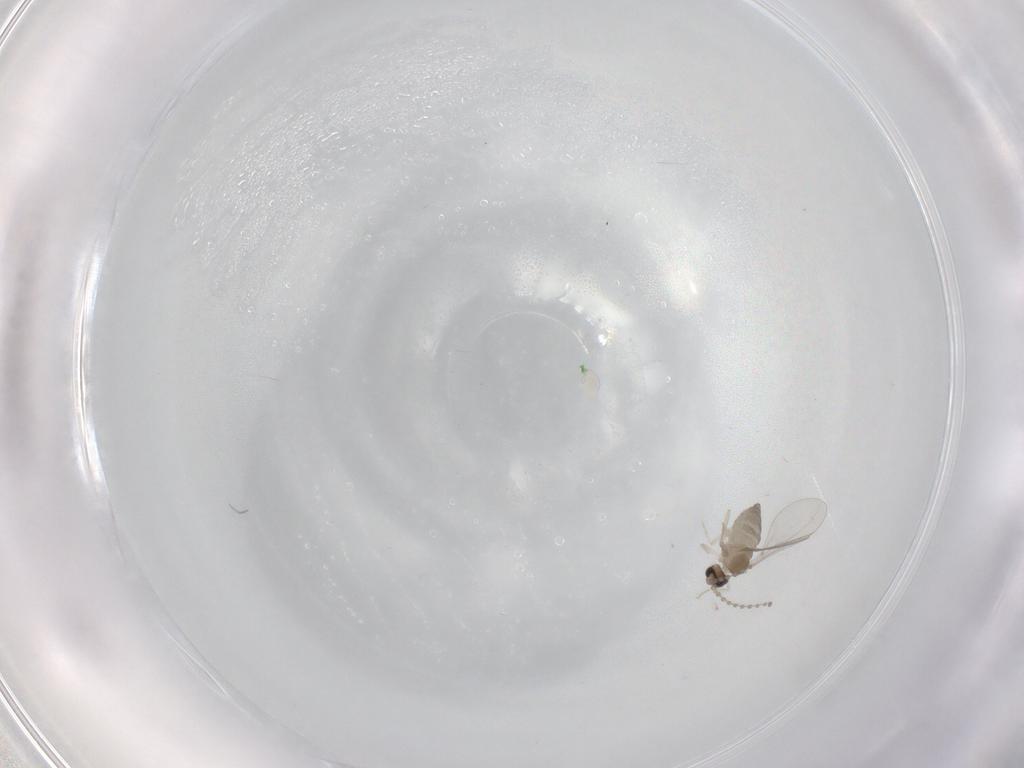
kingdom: Animalia
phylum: Arthropoda
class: Insecta
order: Diptera
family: Cecidomyiidae
